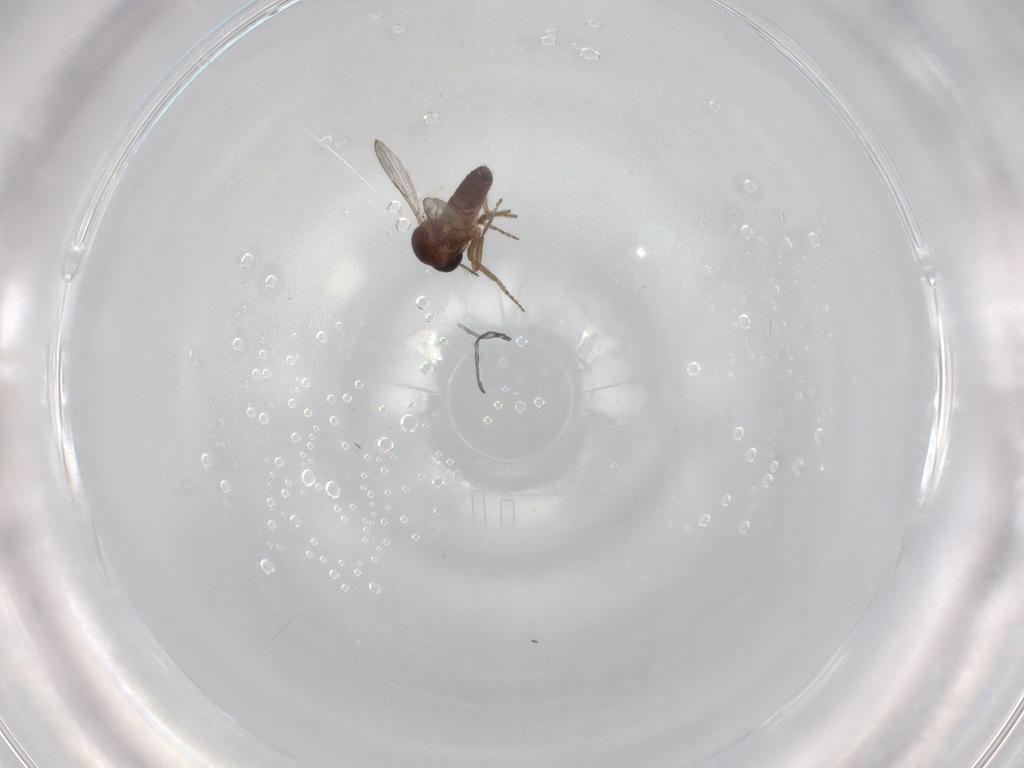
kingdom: Animalia
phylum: Arthropoda
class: Insecta
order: Diptera
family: Ceratopogonidae
